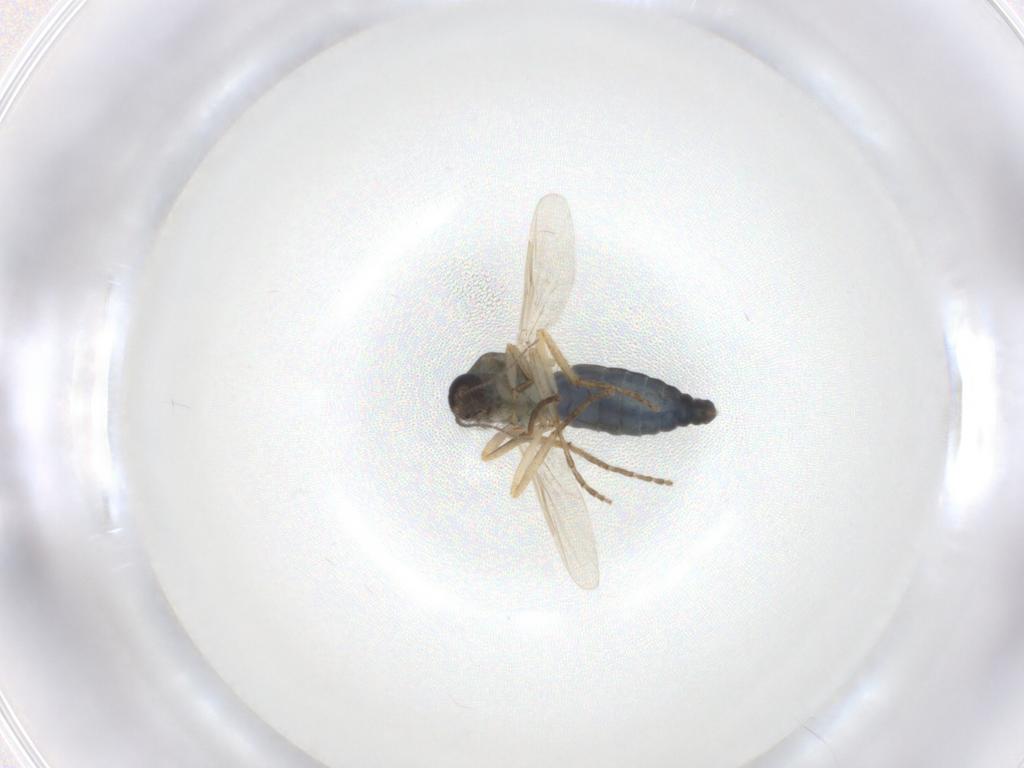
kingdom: Animalia
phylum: Arthropoda
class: Insecta
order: Diptera
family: Ceratopogonidae
